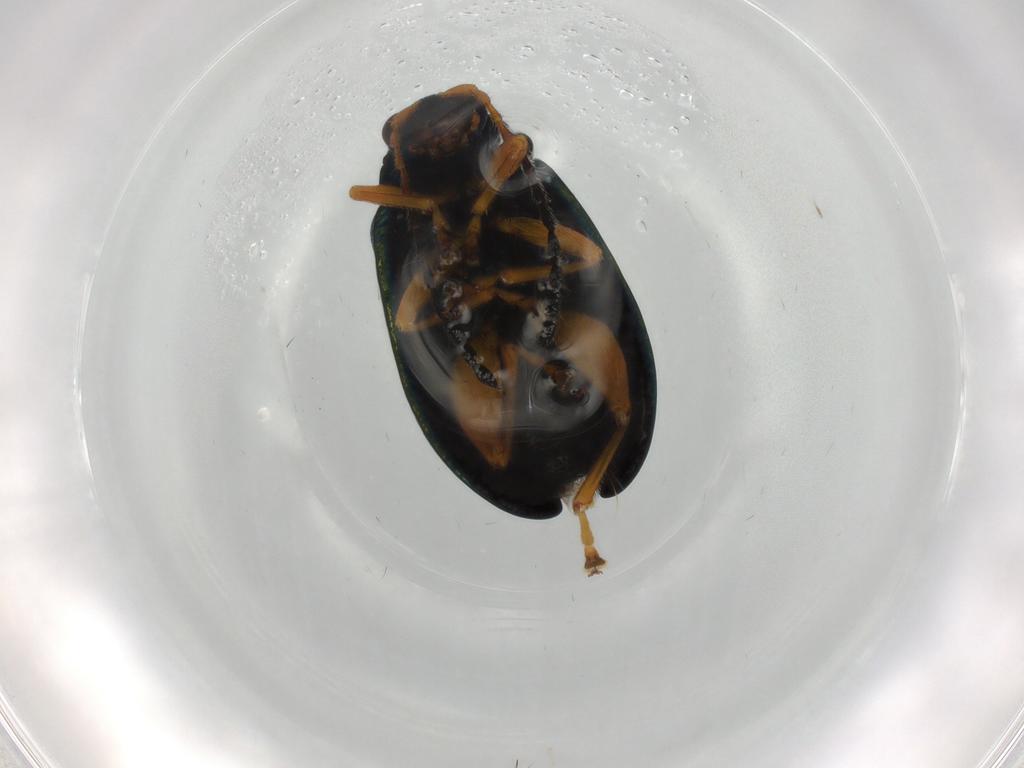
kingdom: Animalia
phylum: Arthropoda
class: Insecta
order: Coleoptera
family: Chrysomelidae
